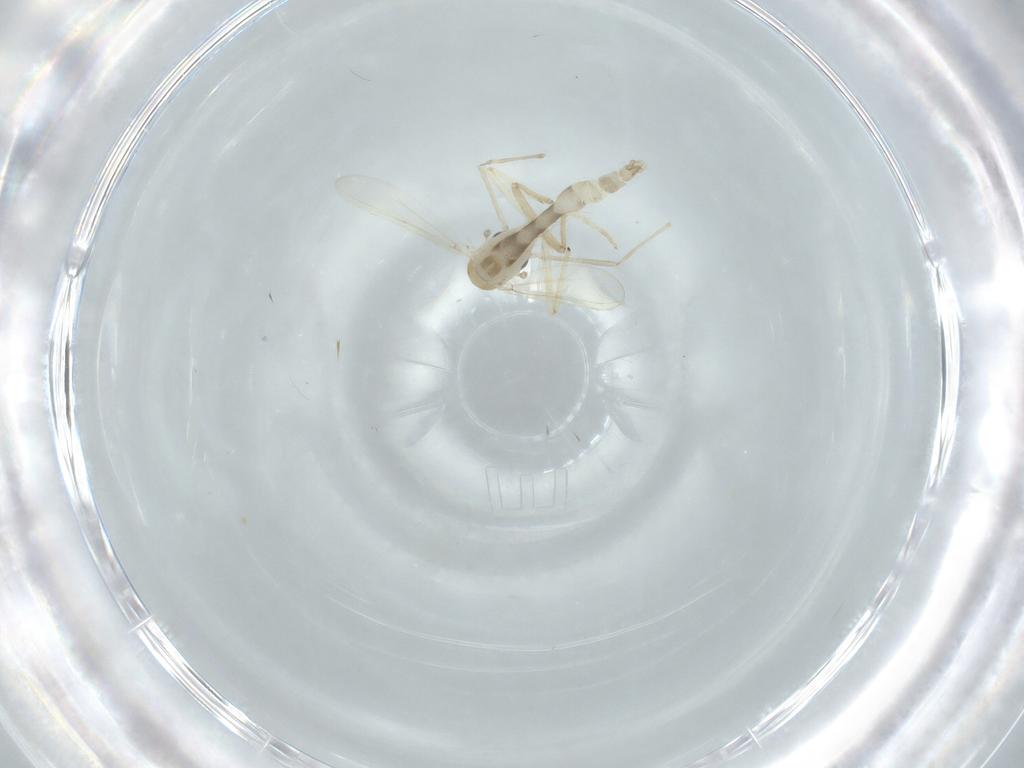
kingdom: Animalia
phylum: Arthropoda
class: Insecta
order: Diptera
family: Chironomidae
